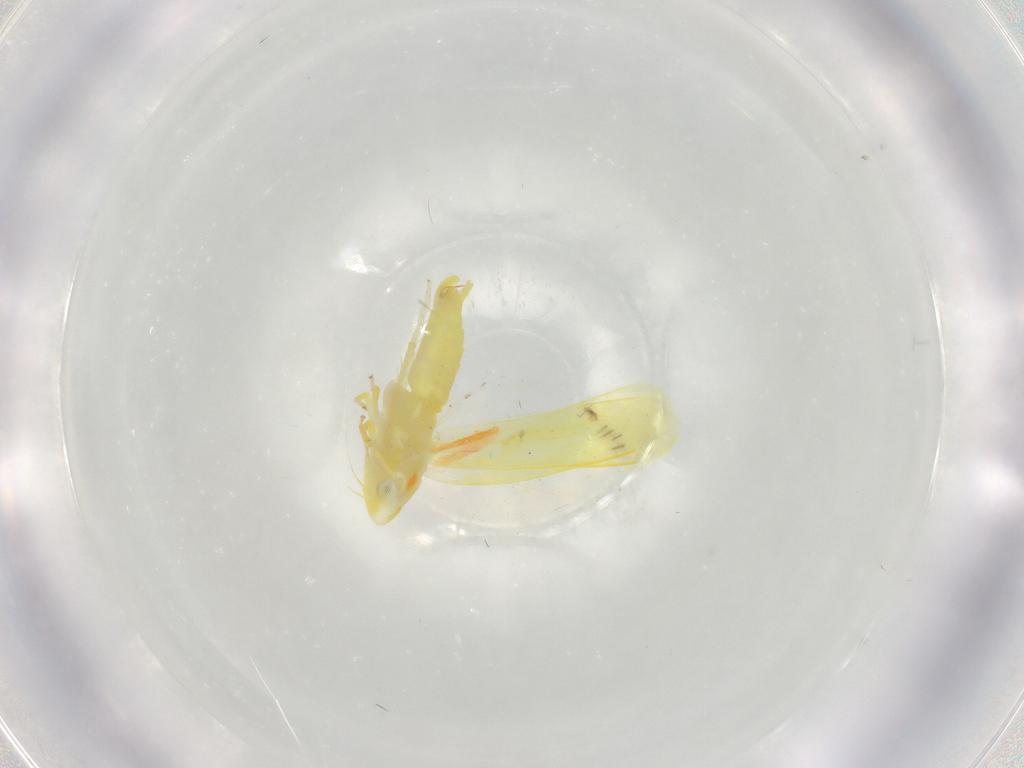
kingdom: Animalia
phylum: Arthropoda
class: Insecta
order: Hemiptera
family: Cicadellidae
